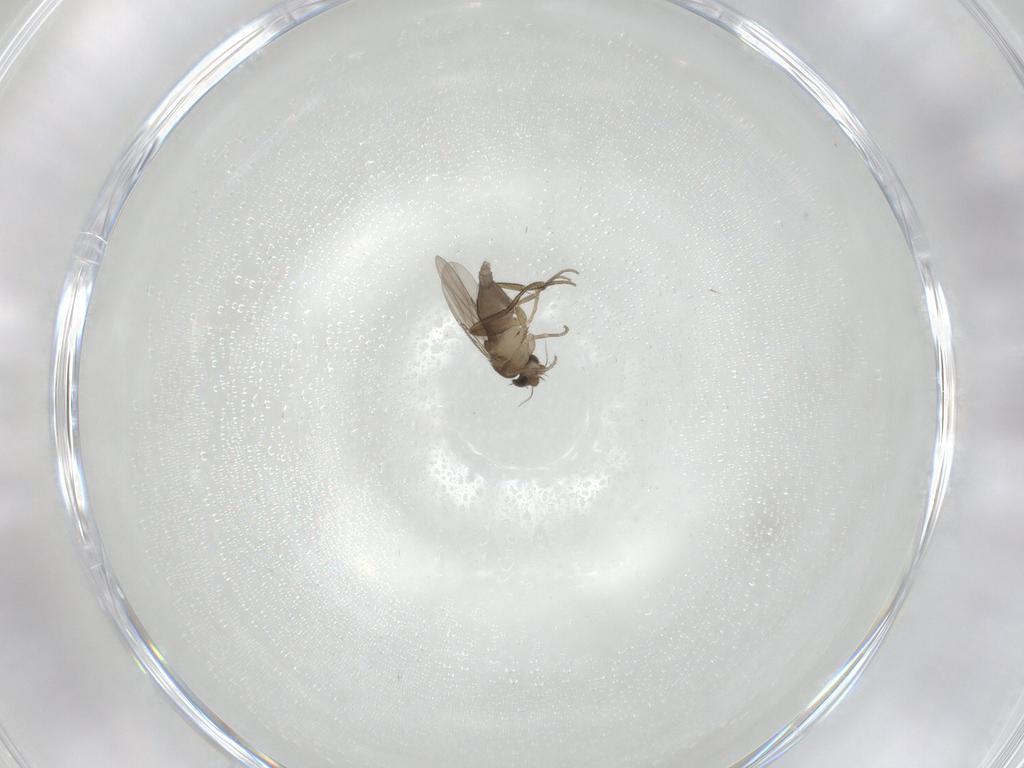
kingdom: Animalia
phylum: Arthropoda
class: Insecta
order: Diptera
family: Phoridae
